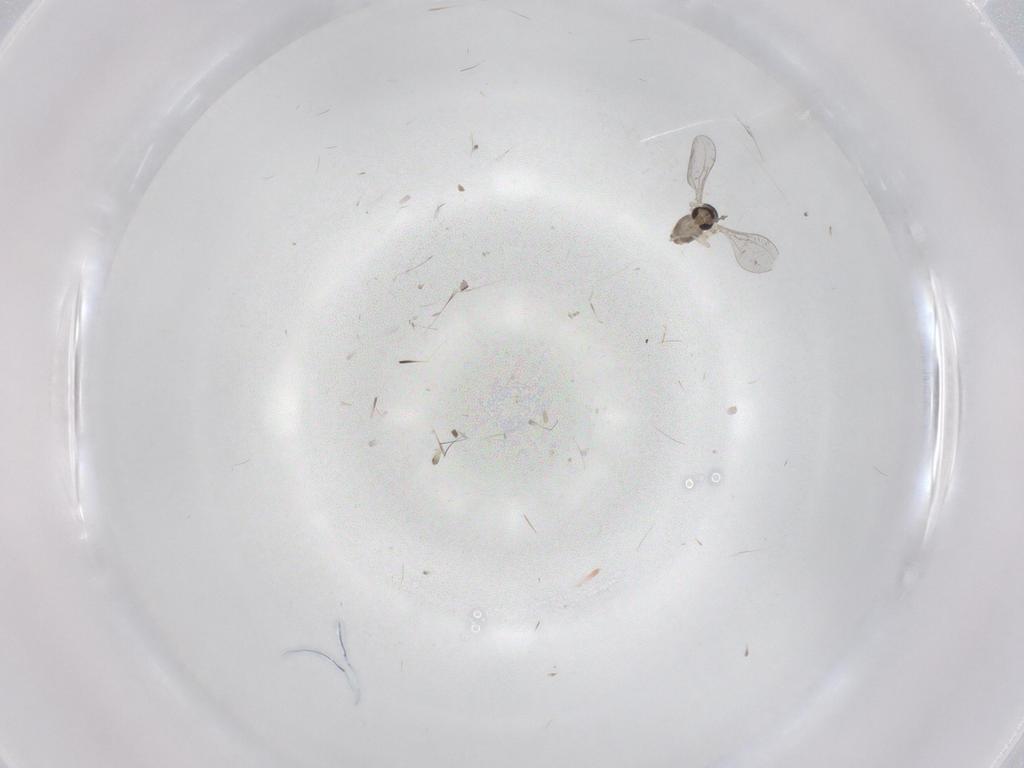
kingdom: Animalia
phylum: Arthropoda
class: Insecta
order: Diptera
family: Cecidomyiidae
